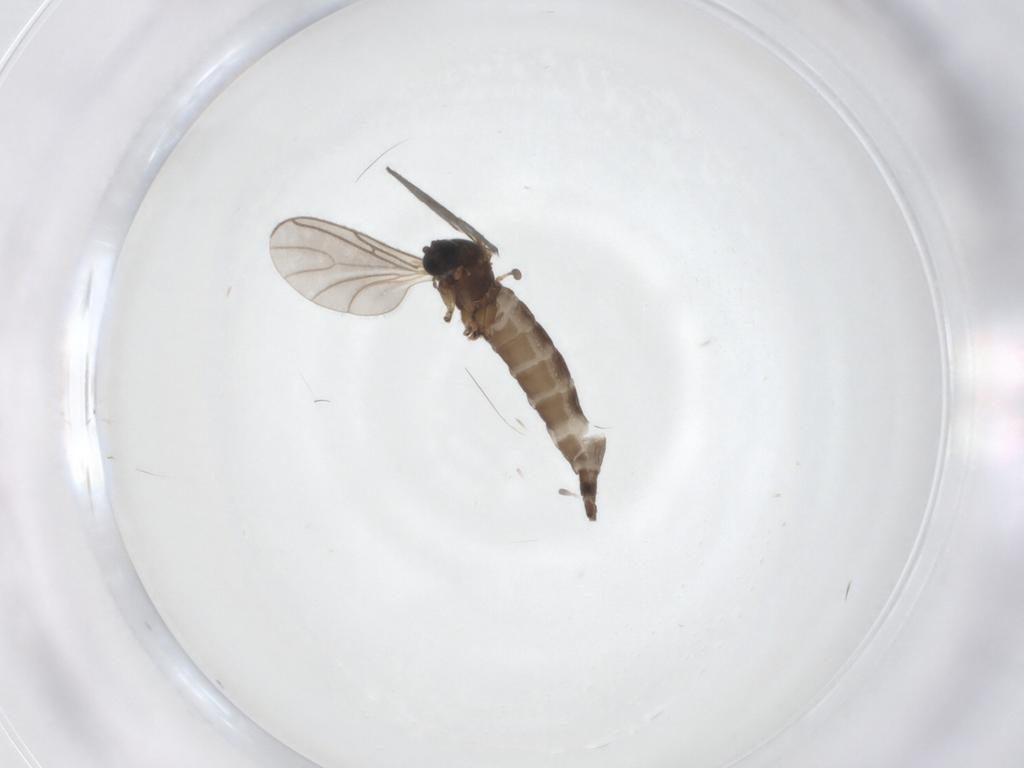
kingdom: Animalia
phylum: Arthropoda
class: Insecta
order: Diptera
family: Sciaridae
